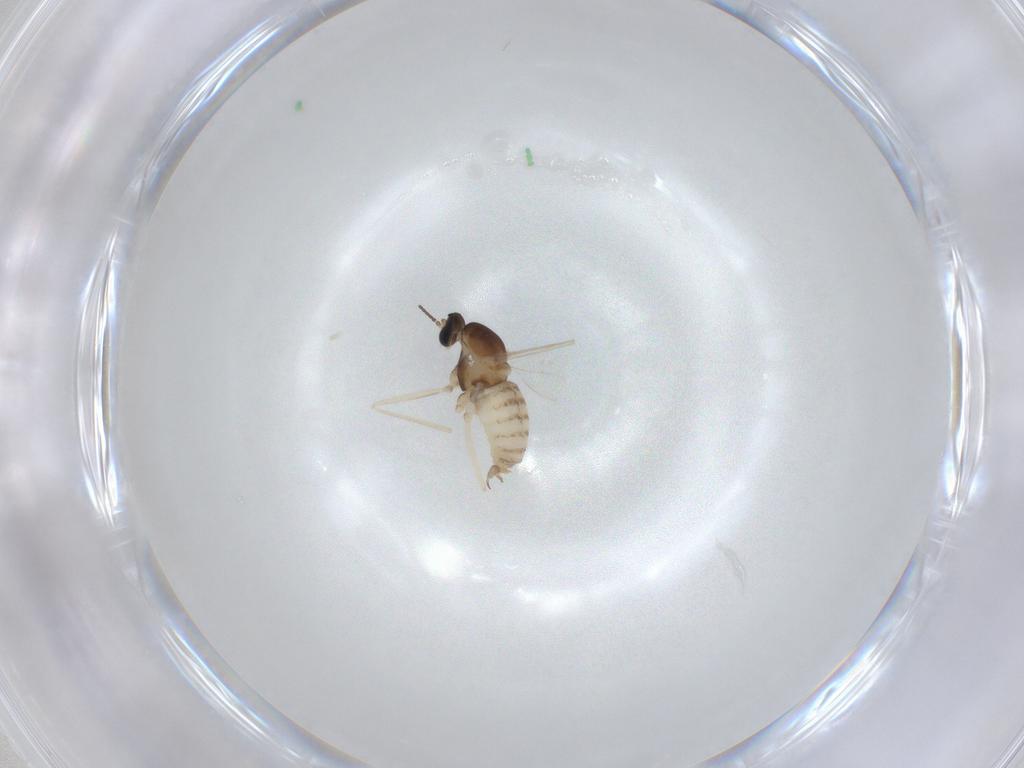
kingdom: Animalia
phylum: Arthropoda
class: Insecta
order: Diptera
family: Cecidomyiidae
